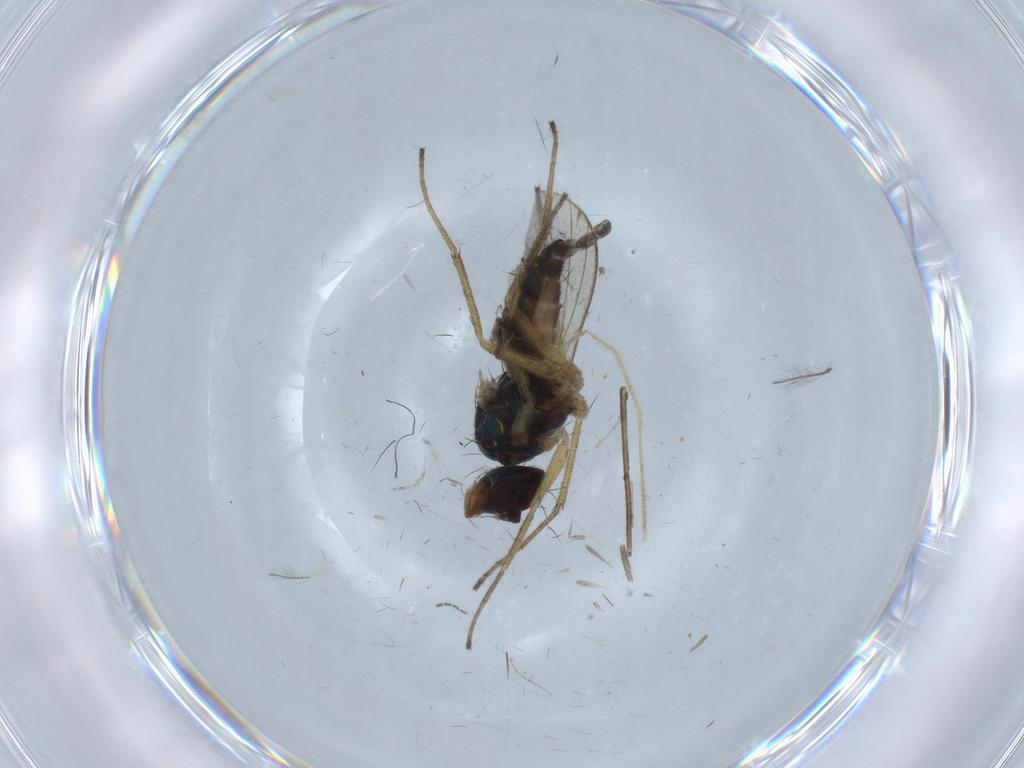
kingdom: Animalia
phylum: Arthropoda
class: Insecta
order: Diptera
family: Dolichopodidae
